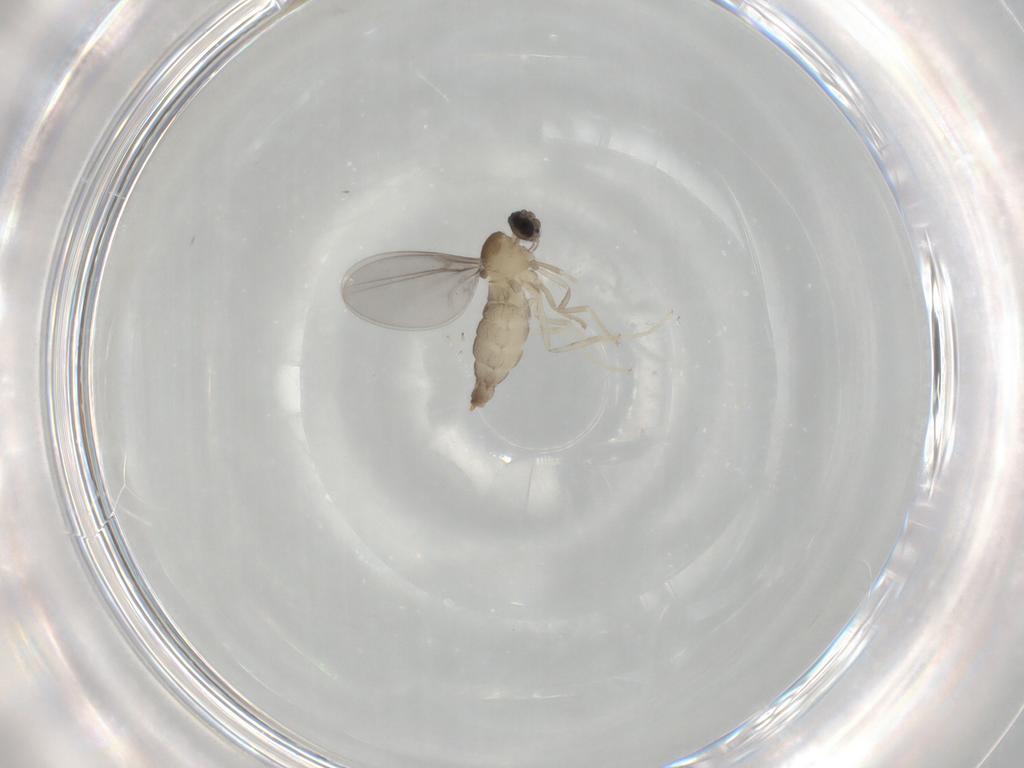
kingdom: Animalia
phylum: Arthropoda
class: Insecta
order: Diptera
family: Cecidomyiidae
